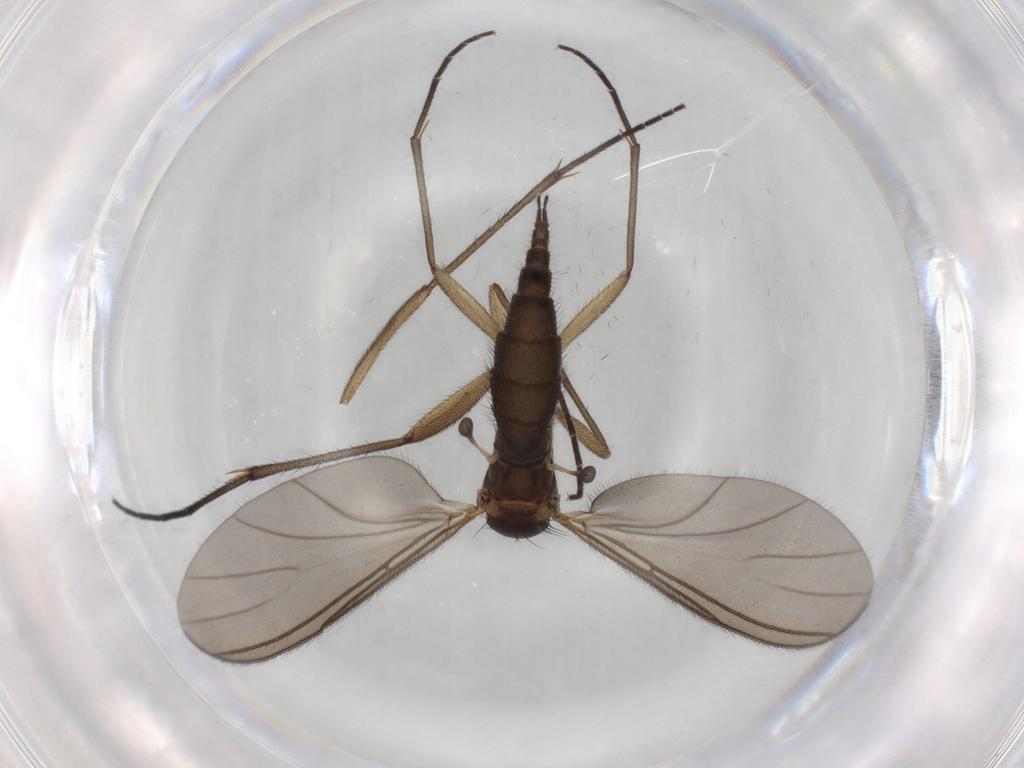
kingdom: Animalia
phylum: Arthropoda
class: Insecta
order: Diptera
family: Sciaridae
